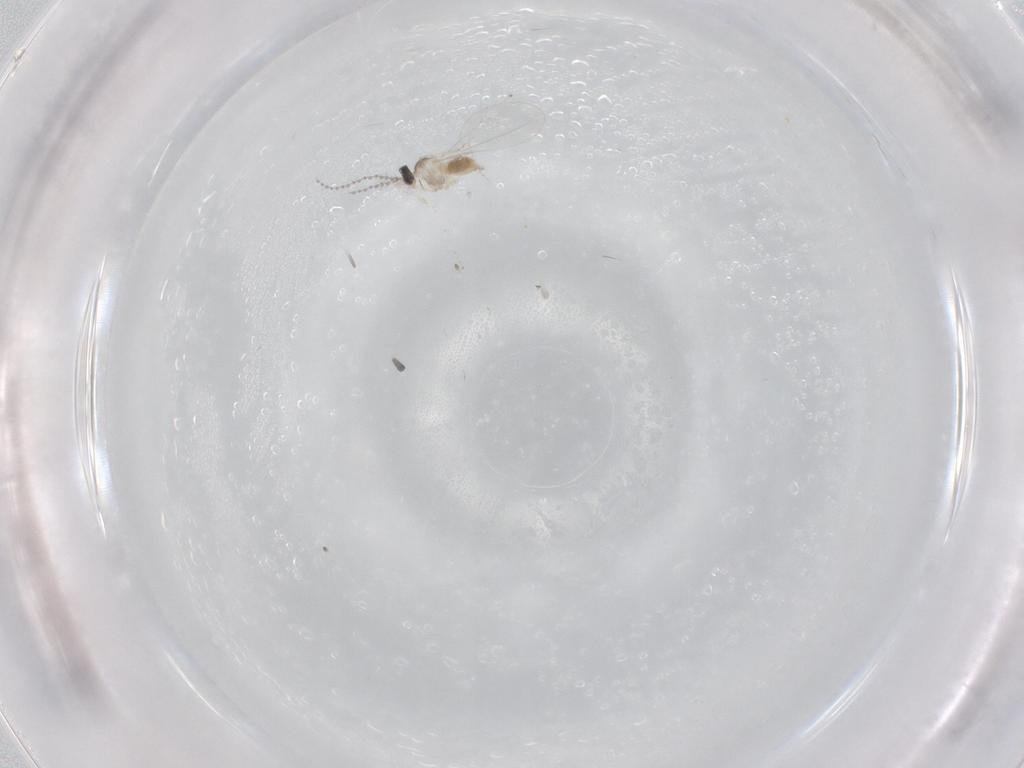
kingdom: Animalia
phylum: Arthropoda
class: Insecta
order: Diptera
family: Cecidomyiidae
